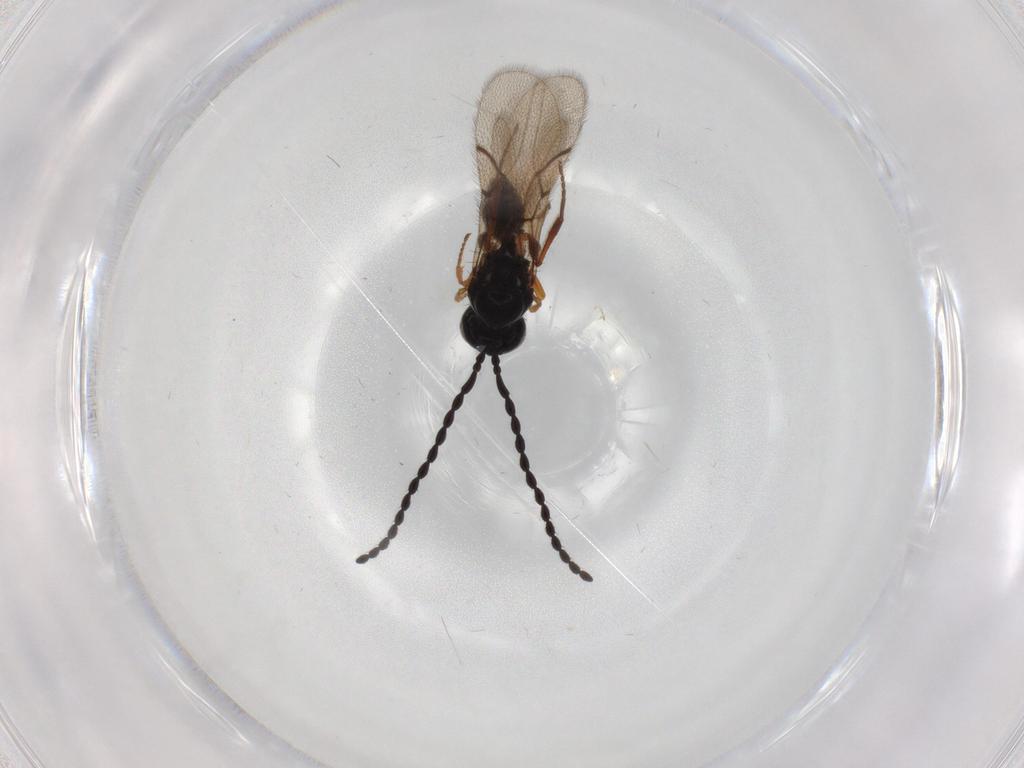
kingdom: Animalia
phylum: Arthropoda
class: Insecta
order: Hymenoptera
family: Figitidae
